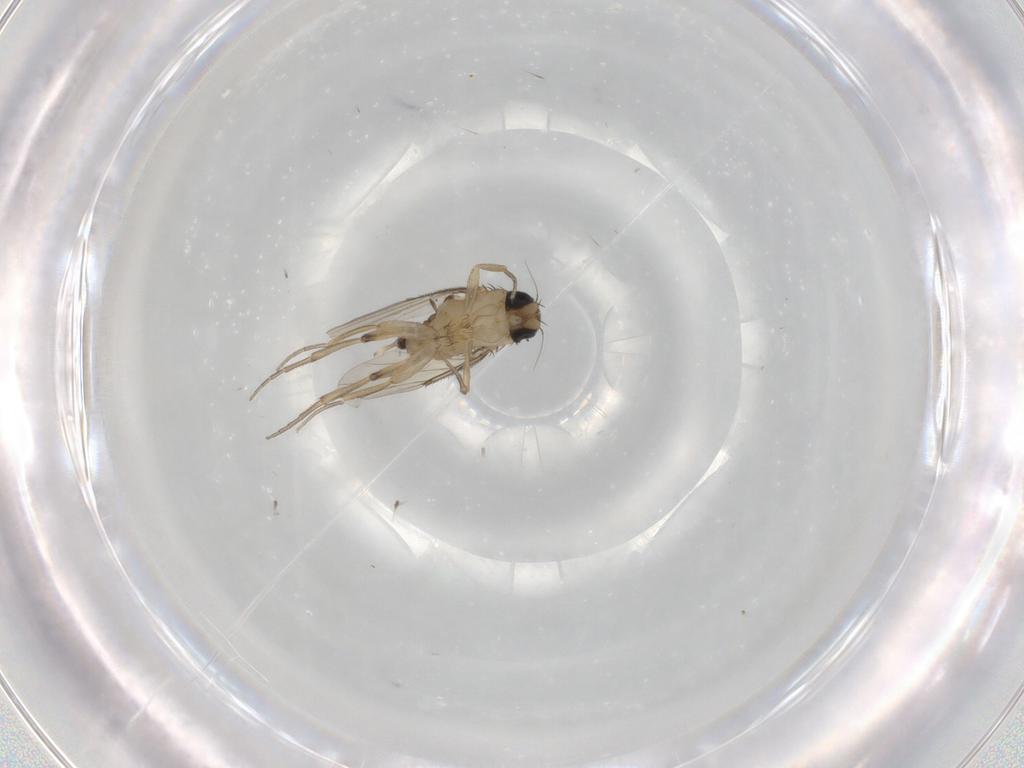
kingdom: Animalia
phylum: Arthropoda
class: Insecta
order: Diptera
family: Phoridae
